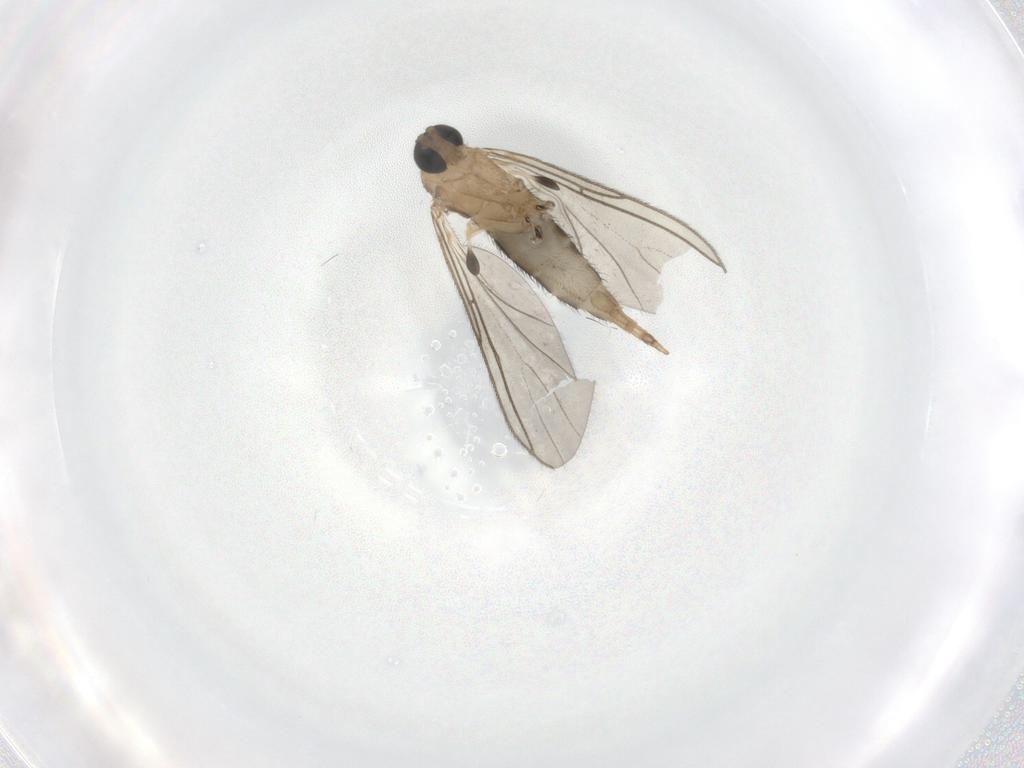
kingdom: Animalia
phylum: Arthropoda
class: Insecta
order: Diptera
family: Sciaridae
